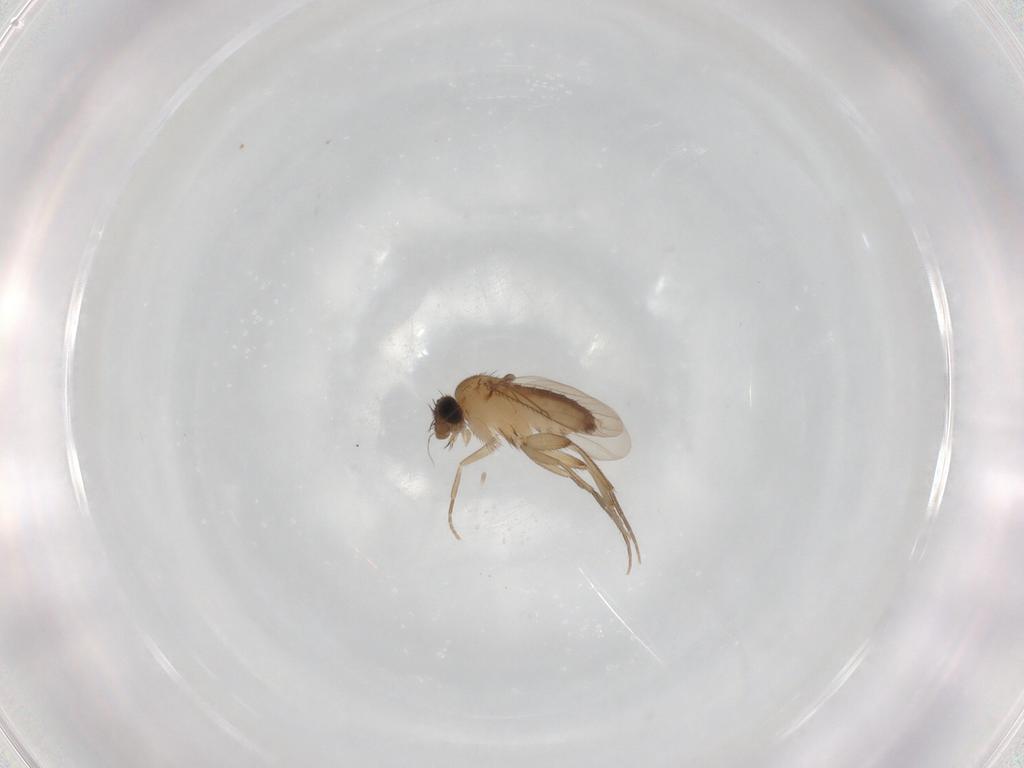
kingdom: Animalia
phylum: Arthropoda
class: Insecta
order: Diptera
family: Phoridae
